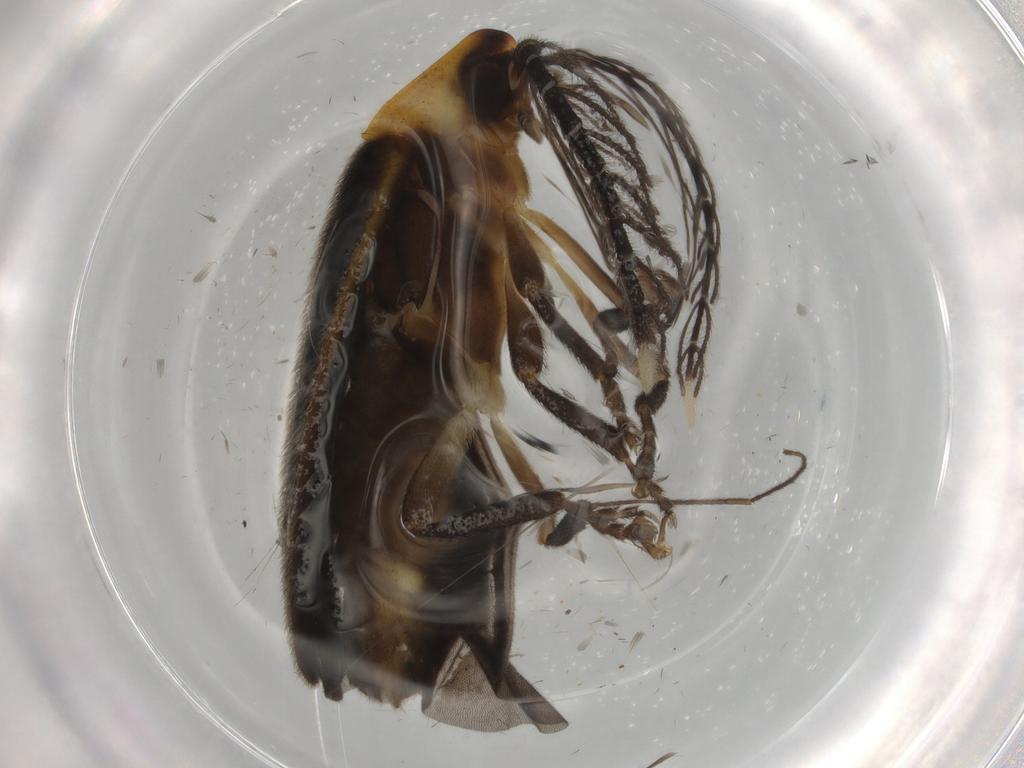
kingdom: Animalia
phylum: Arthropoda
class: Insecta
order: Coleoptera
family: Lampyridae
